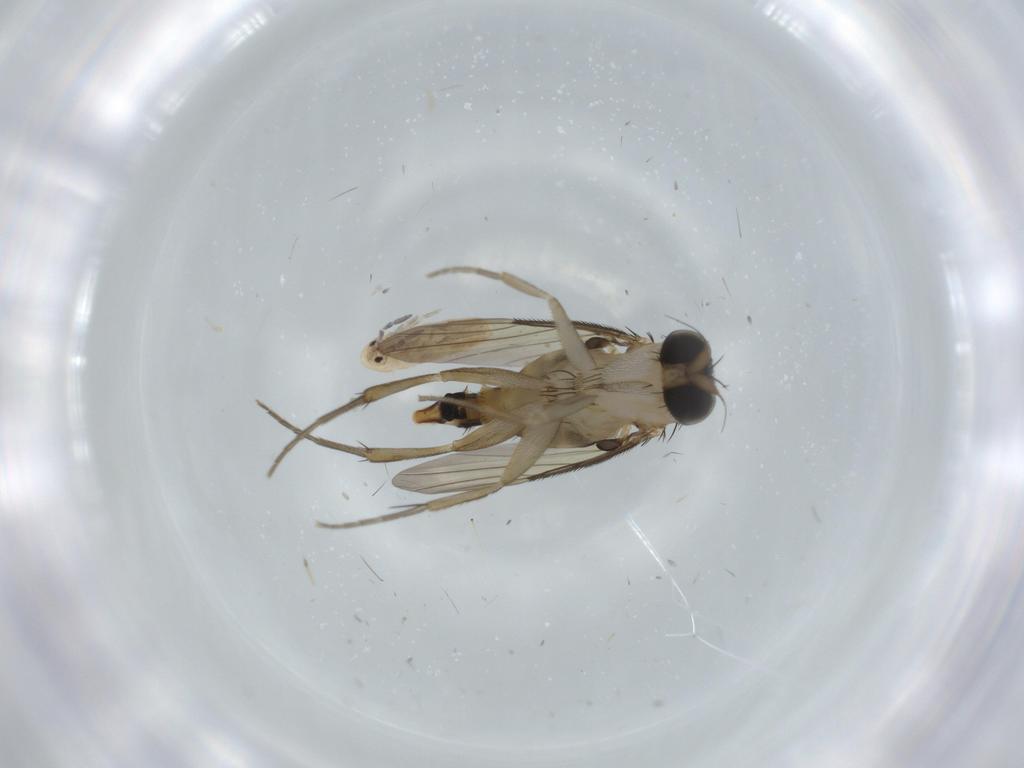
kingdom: Animalia
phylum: Arthropoda
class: Insecta
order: Diptera
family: Phoridae
